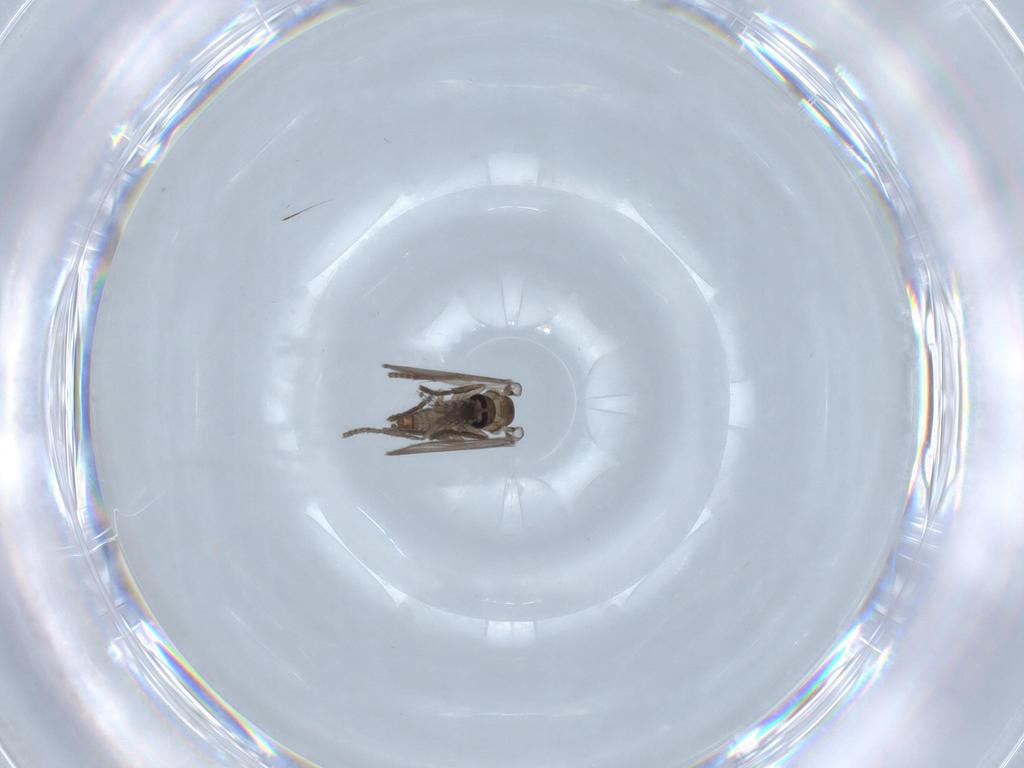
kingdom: Animalia
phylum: Arthropoda
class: Insecta
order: Diptera
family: Psychodidae
